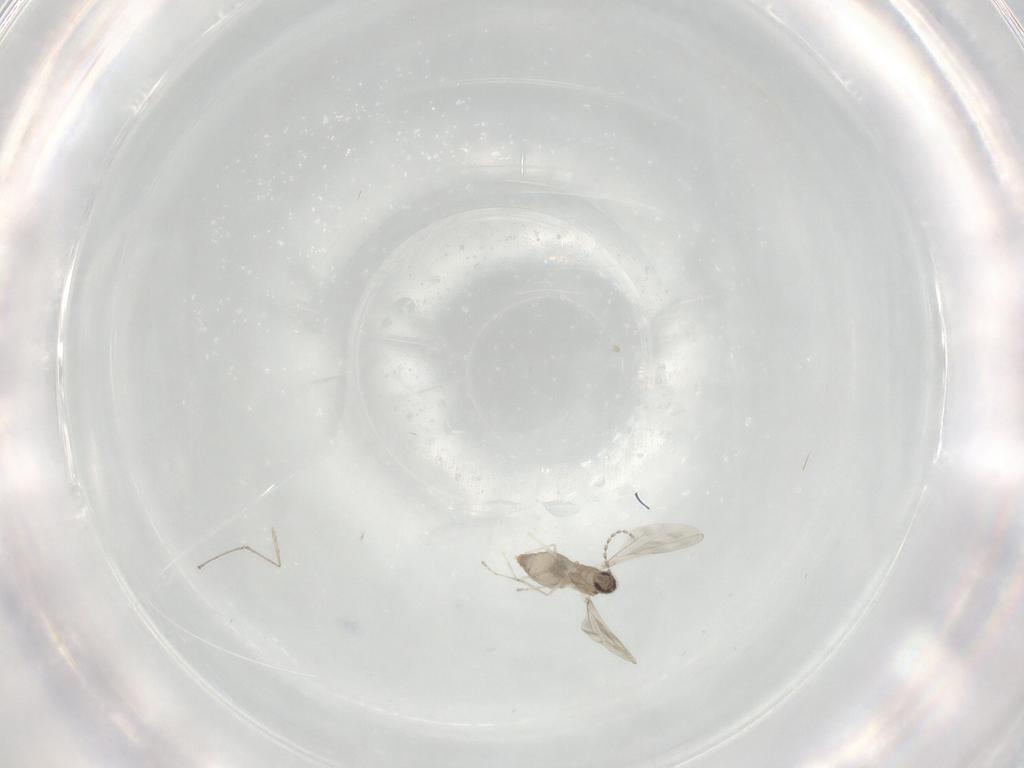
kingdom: Animalia
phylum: Arthropoda
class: Insecta
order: Diptera
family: Cecidomyiidae
